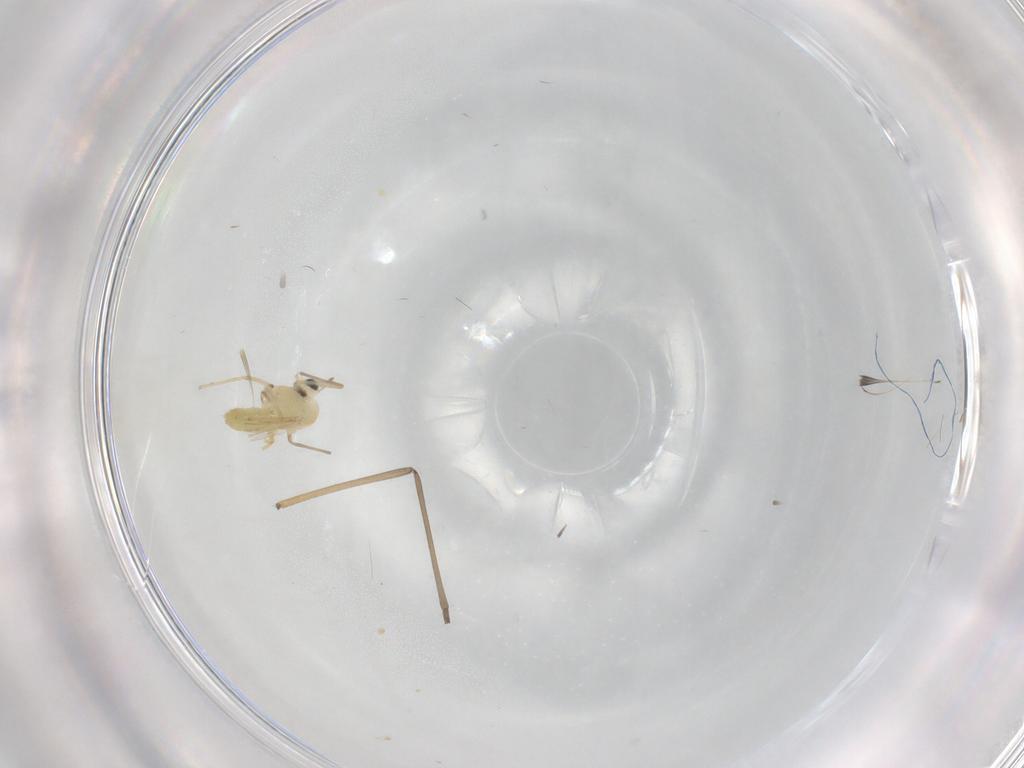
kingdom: Animalia
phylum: Arthropoda
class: Insecta
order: Diptera
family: Chironomidae
